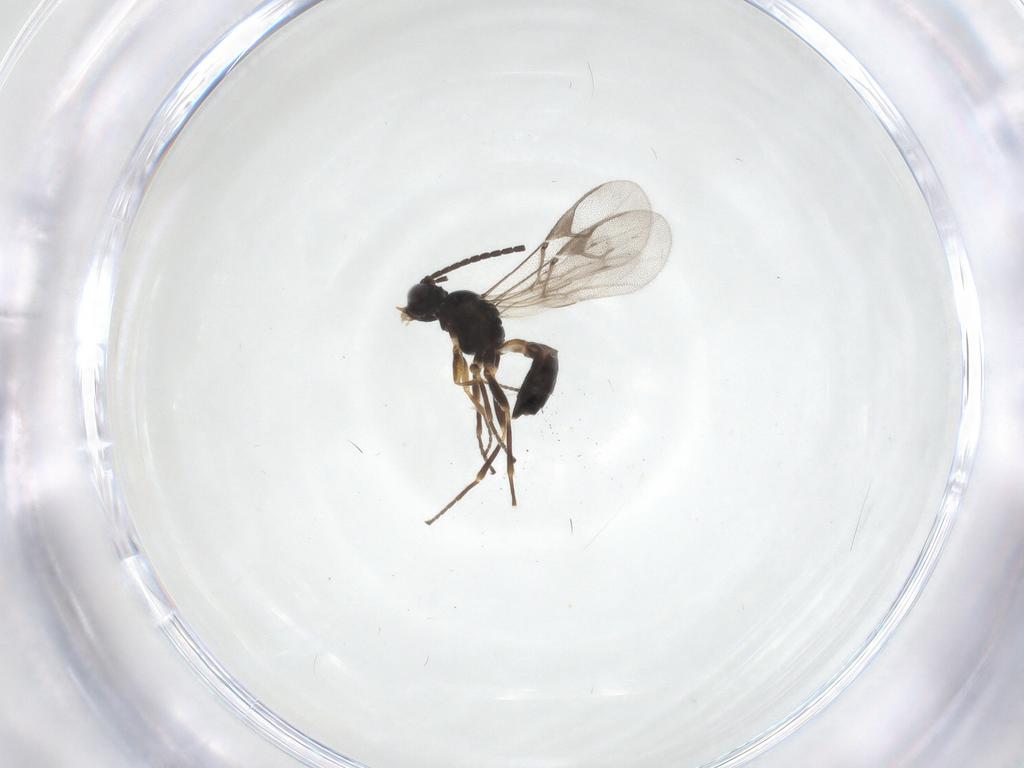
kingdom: Animalia
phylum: Arthropoda
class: Insecta
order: Hymenoptera
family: Braconidae
